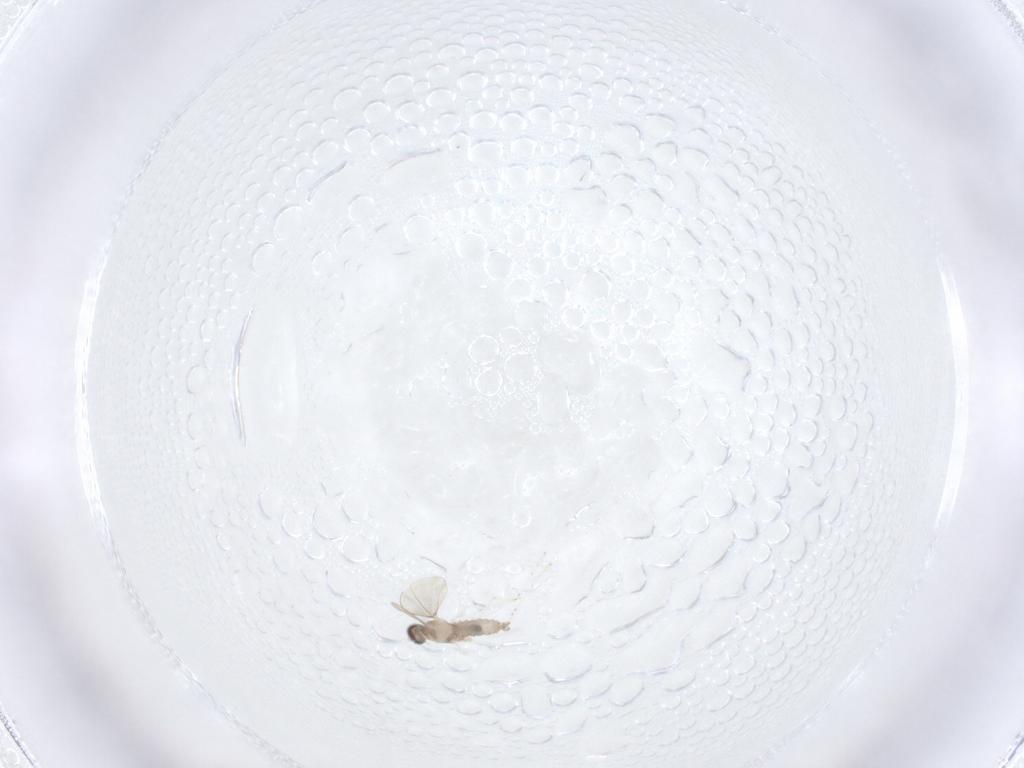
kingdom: Animalia
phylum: Arthropoda
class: Insecta
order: Diptera
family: Cecidomyiidae
